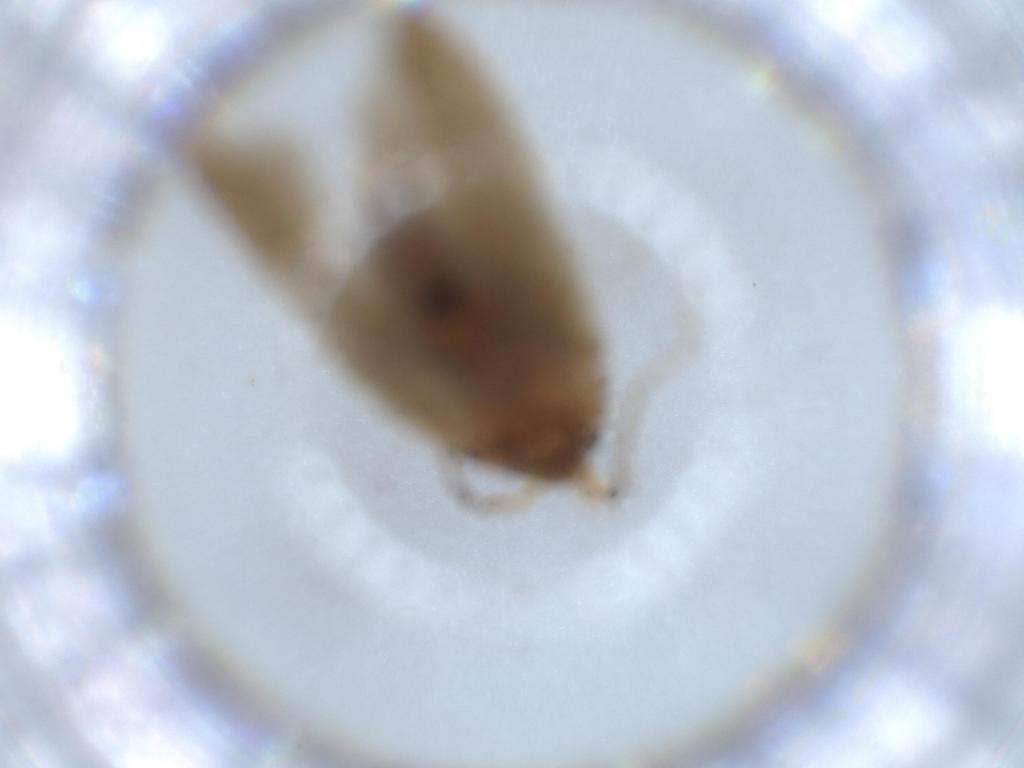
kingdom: Animalia
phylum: Arthropoda
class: Insecta
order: Lepidoptera
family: Blastobasidae
